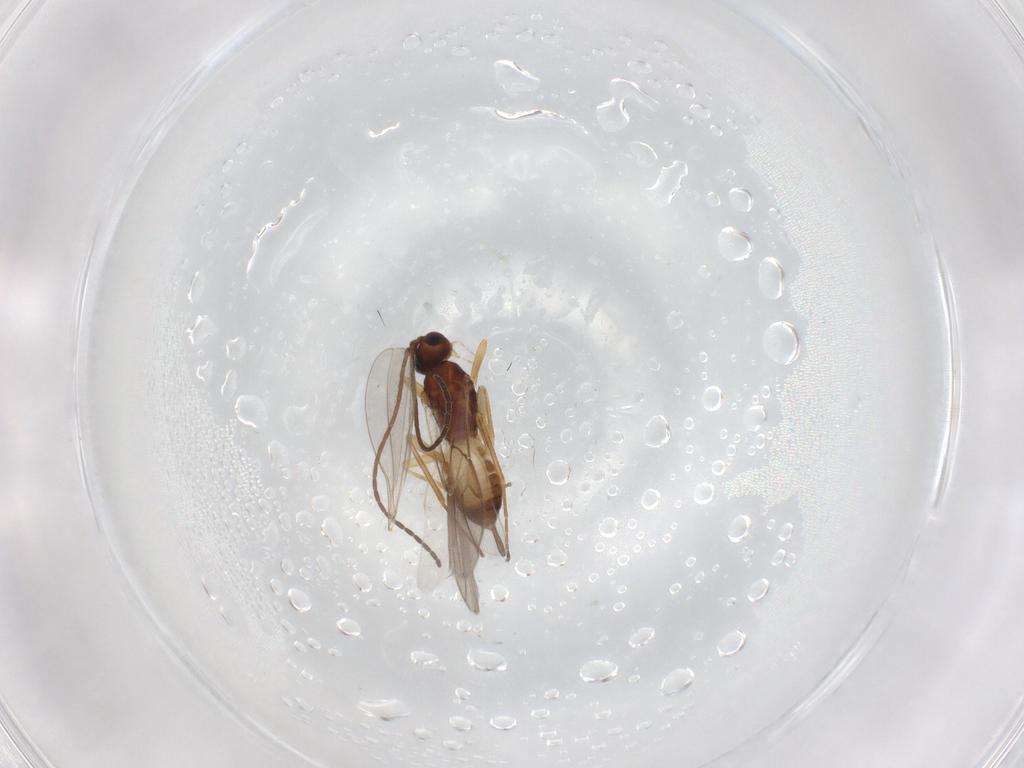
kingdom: Animalia
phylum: Arthropoda
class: Insecta
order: Hymenoptera
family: Braconidae
